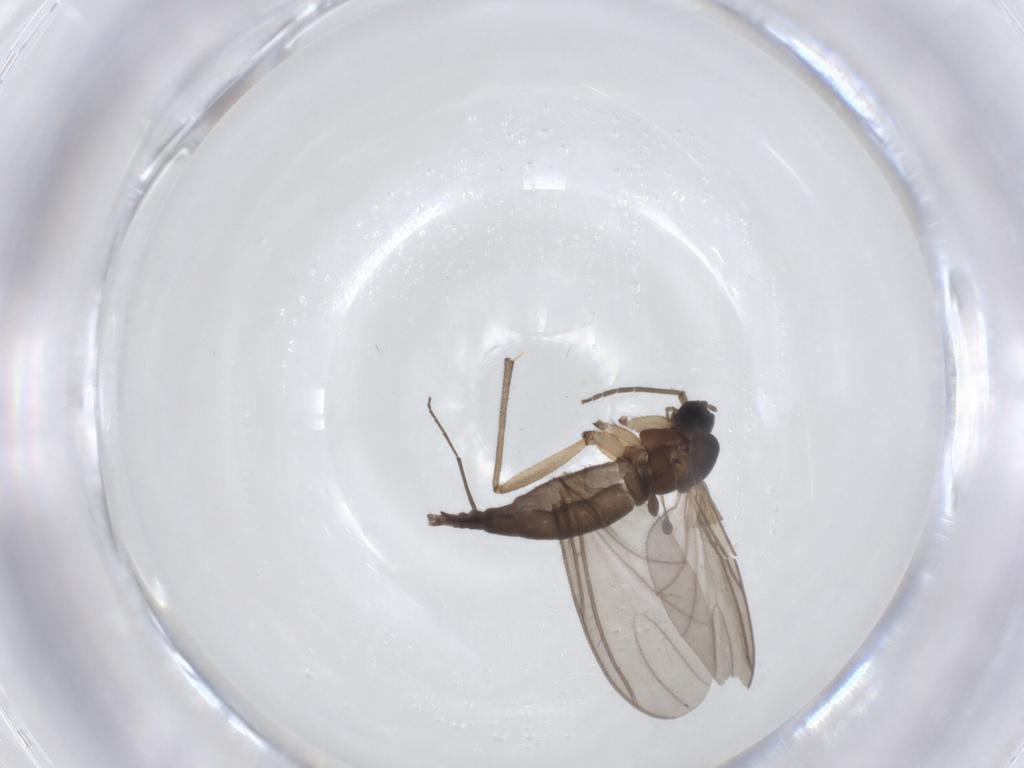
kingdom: Animalia
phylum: Arthropoda
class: Insecta
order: Diptera
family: Sciaridae
